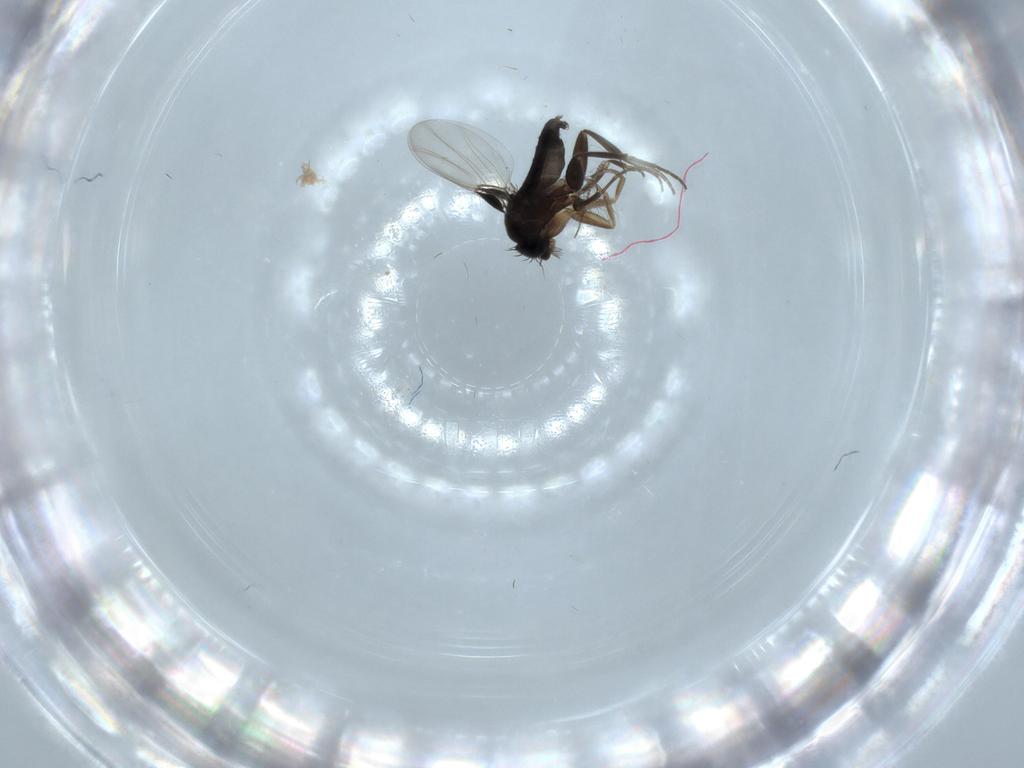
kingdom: Animalia
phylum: Arthropoda
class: Insecta
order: Diptera
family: Phoridae
